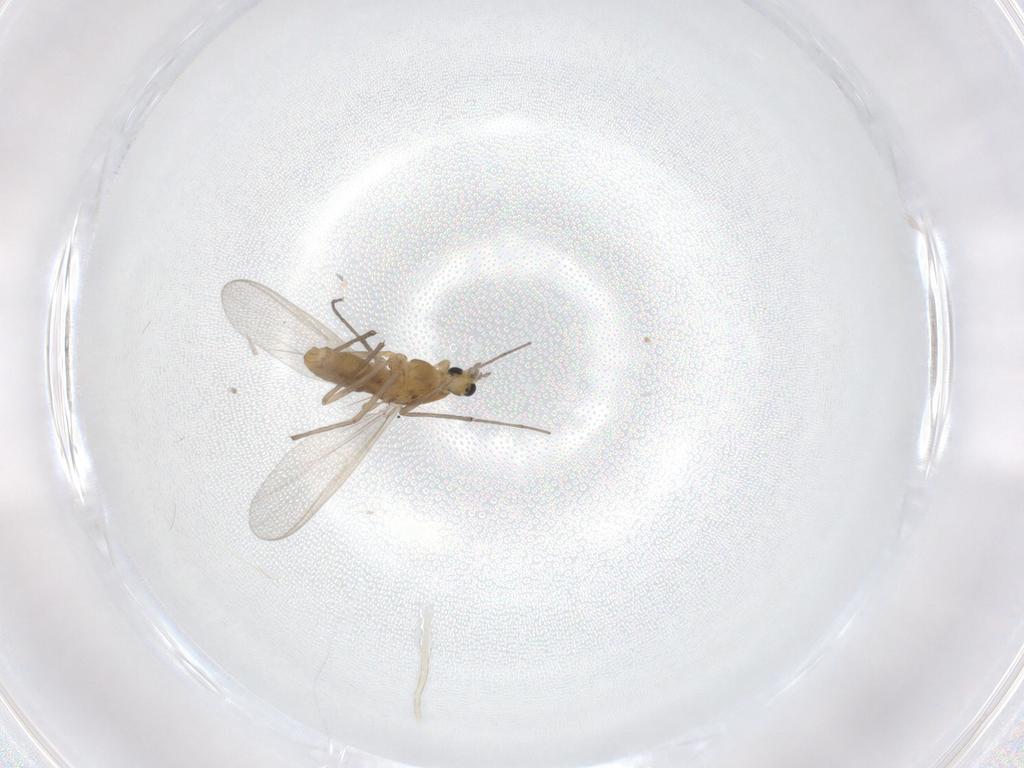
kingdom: Animalia
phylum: Arthropoda
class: Insecta
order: Diptera
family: Chironomidae
